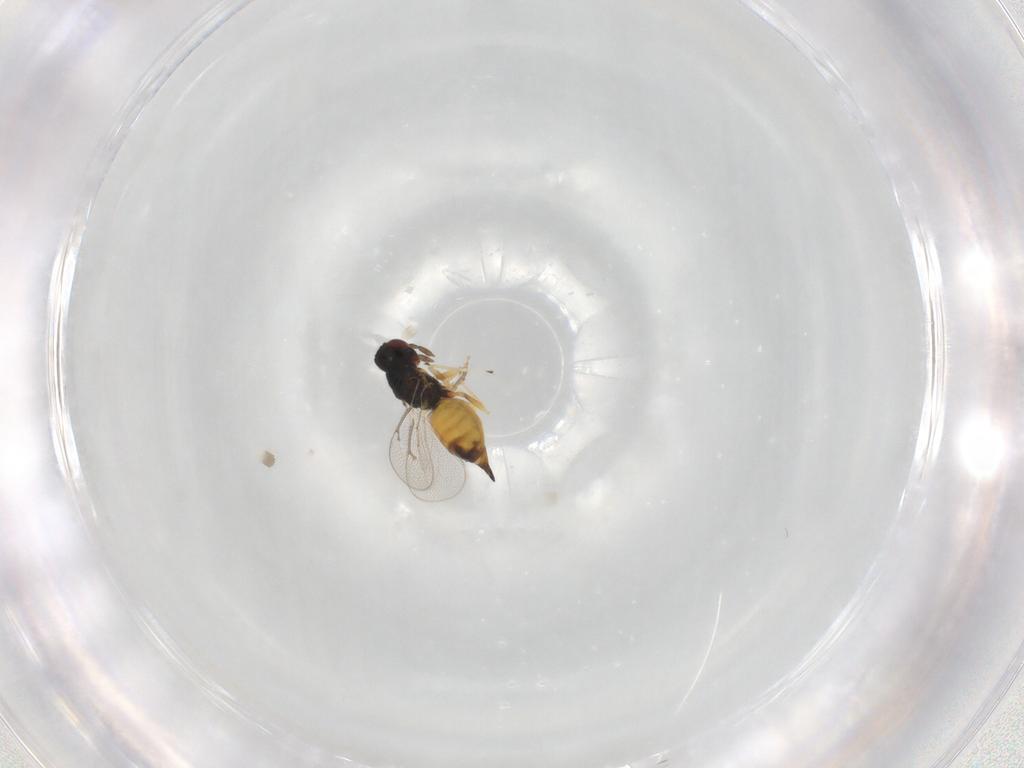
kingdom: Animalia
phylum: Arthropoda
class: Insecta
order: Hymenoptera
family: Eulophidae
